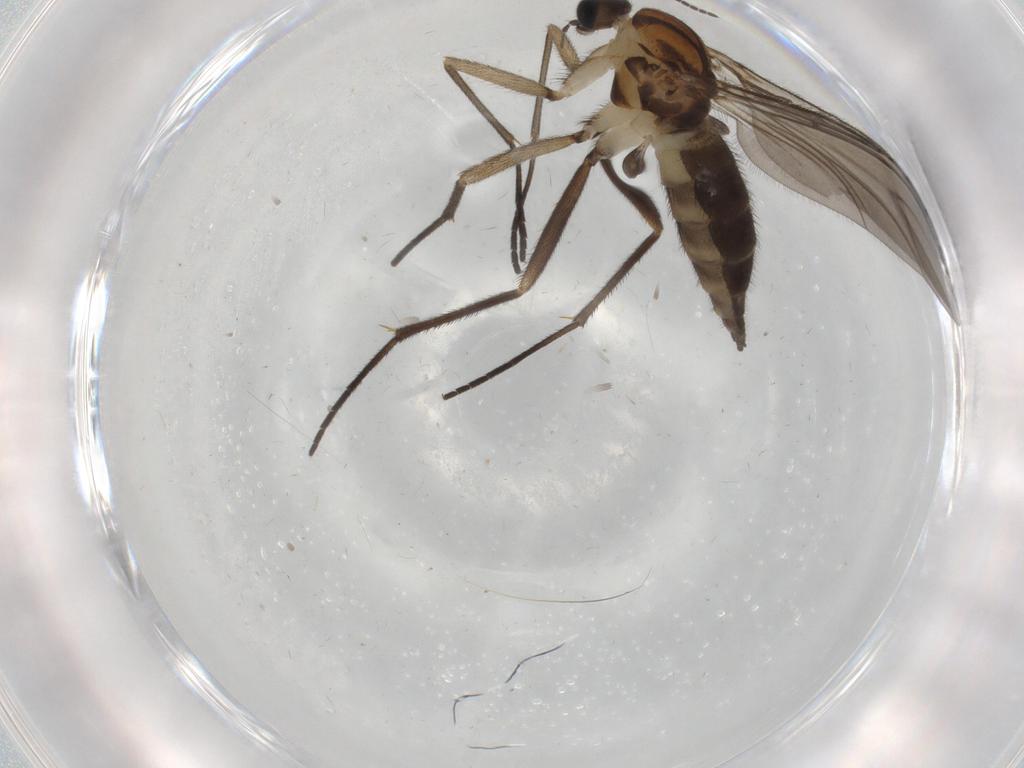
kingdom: Animalia
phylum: Arthropoda
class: Insecta
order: Diptera
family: Sciaridae
